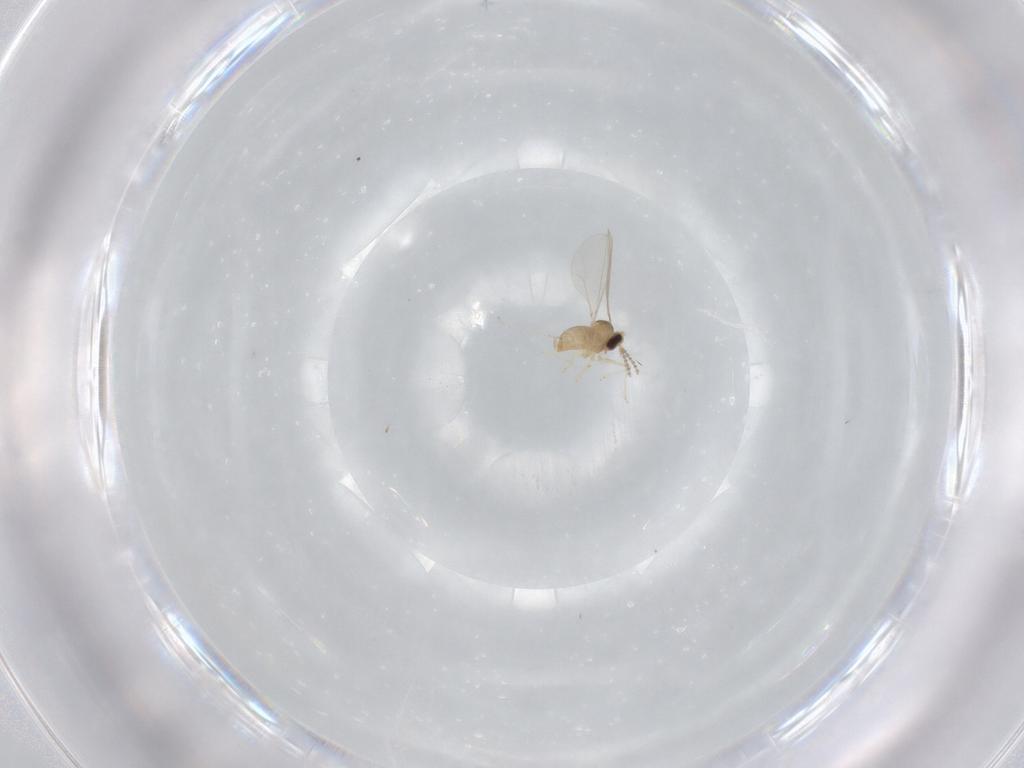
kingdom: Animalia
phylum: Arthropoda
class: Insecta
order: Diptera
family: Cecidomyiidae
